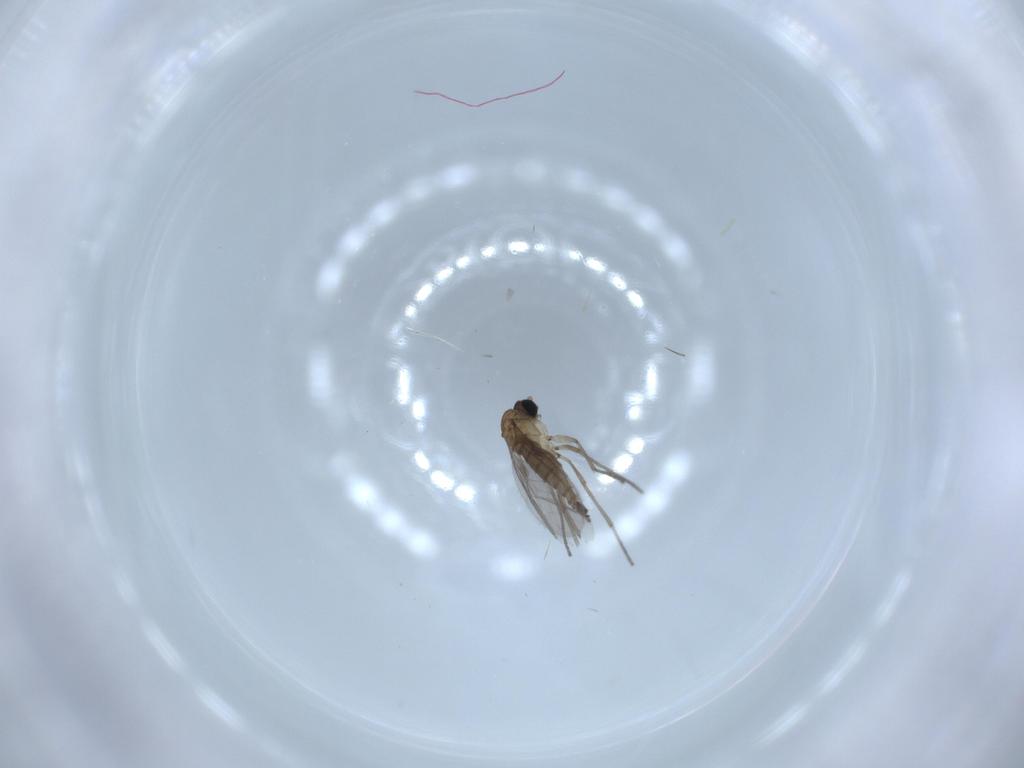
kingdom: Animalia
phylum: Arthropoda
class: Insecta
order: Diptera
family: Sciaridae
